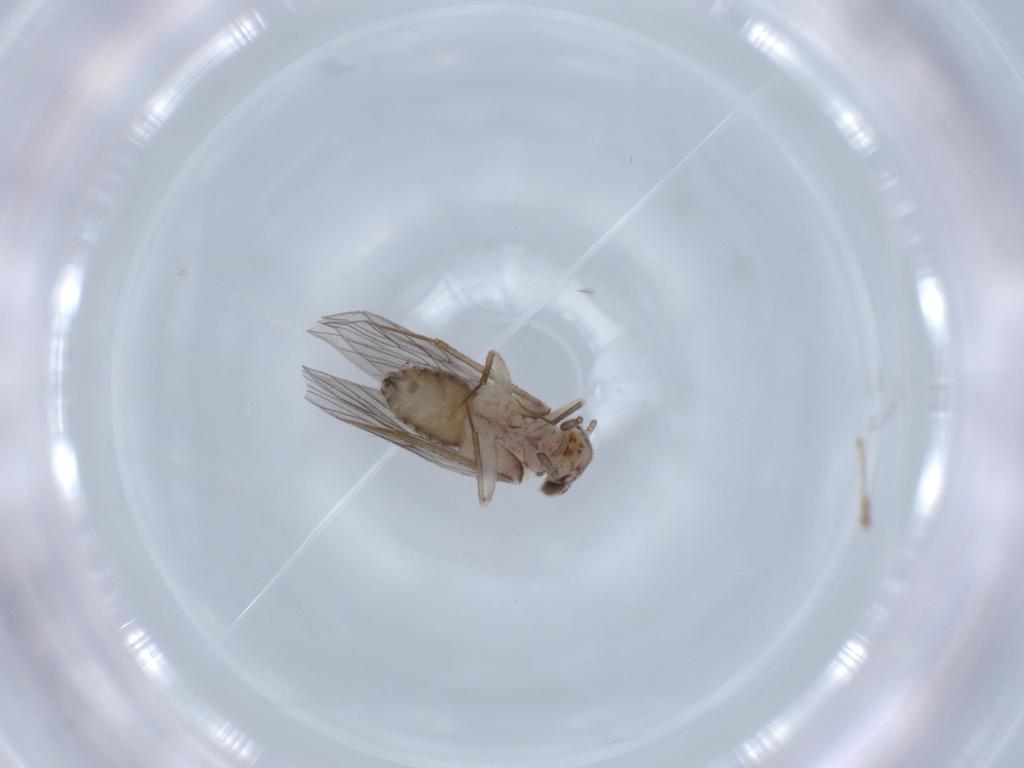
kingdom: Animalia
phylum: Arthropoda
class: Insecta
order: Psocodea
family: Lepidopsocidae
